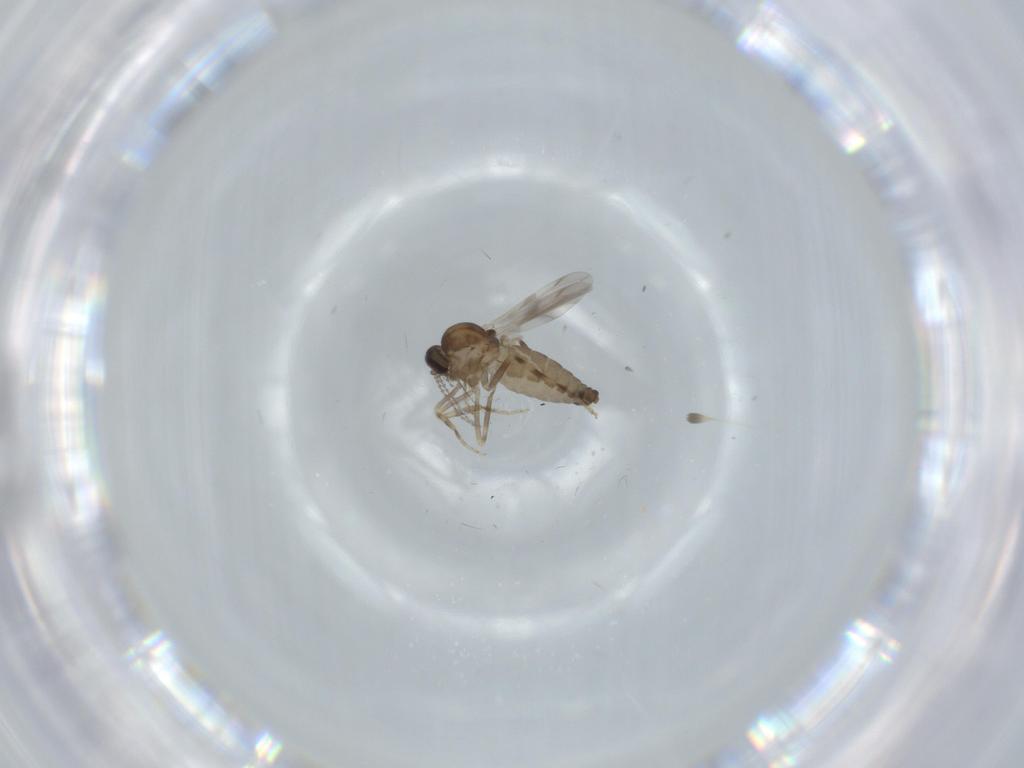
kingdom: Animalia
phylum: Arthropoda
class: Insecta
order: Diptera
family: Ceratopogonidae
